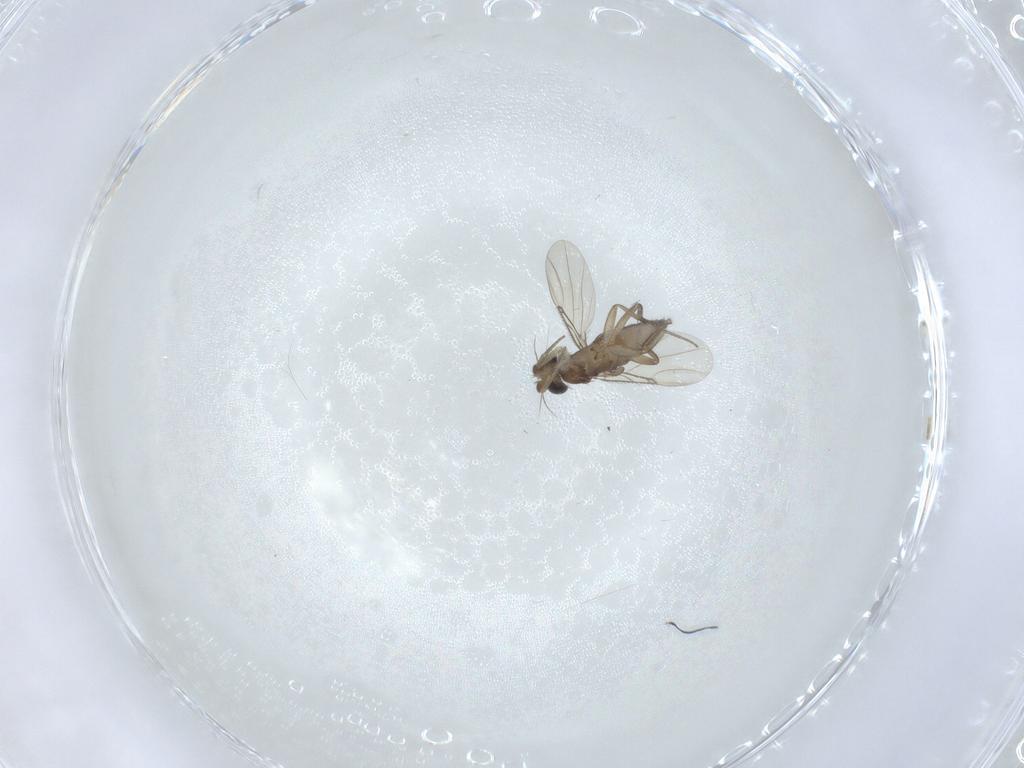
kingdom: Animalia
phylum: Arthropoda
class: Insecta
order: Diptera
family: Phoridae
